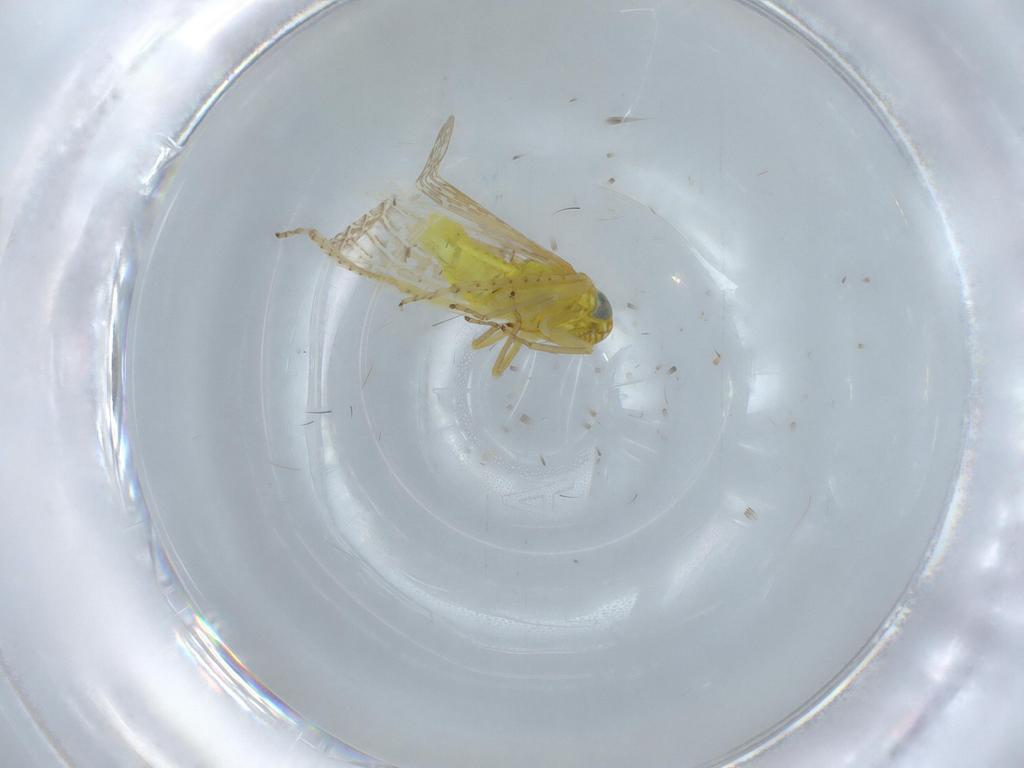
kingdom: Animalia
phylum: Arthropoda
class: Insecta
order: Hemiptera
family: Cicadellidae
